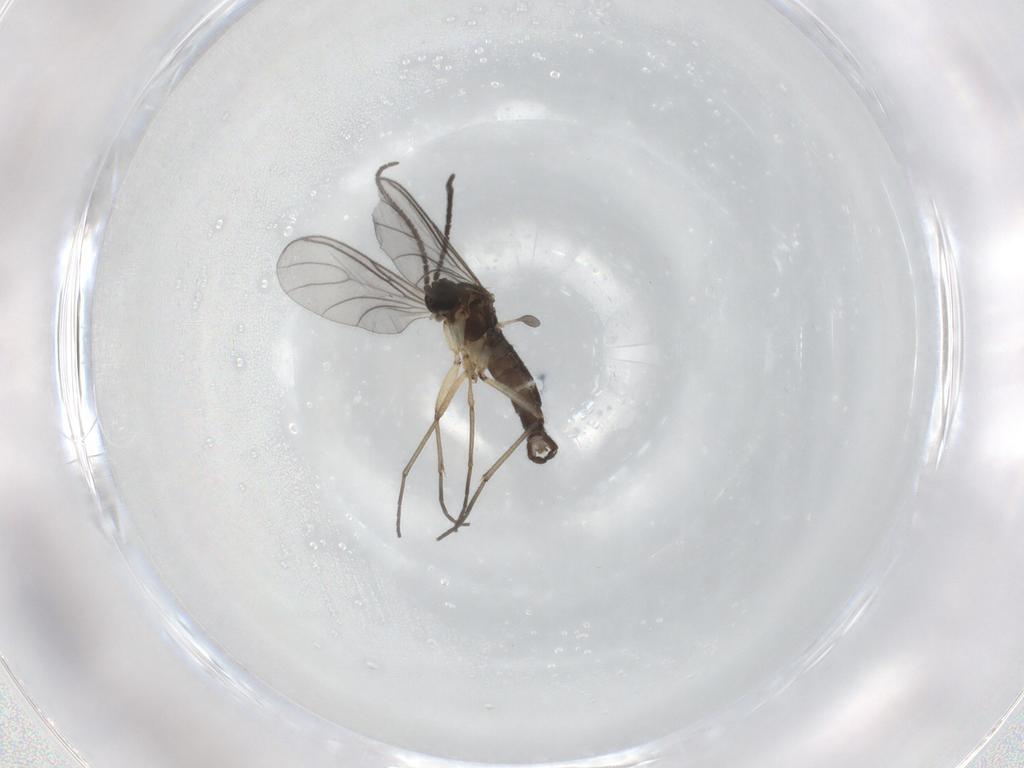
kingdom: Animalia
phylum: Arthropoda
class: Insecta
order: Diptera
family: Sciaridae
